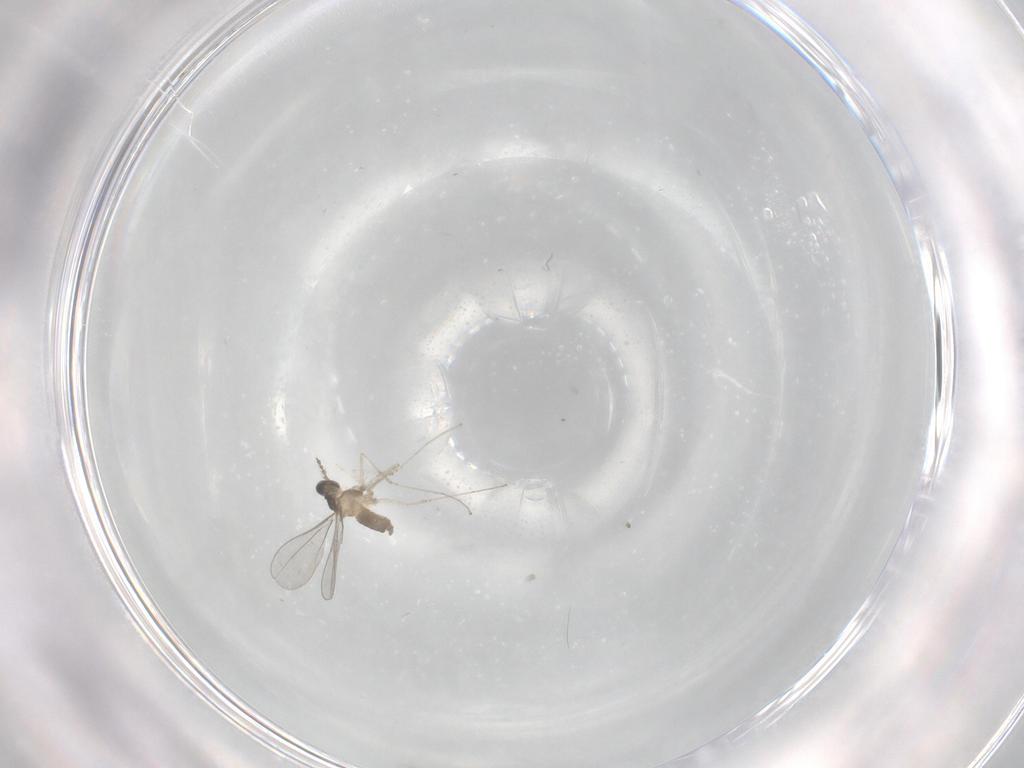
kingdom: Animalia
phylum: Arthropoda
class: Insecta
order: Diptera
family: Cecidomyiidae
